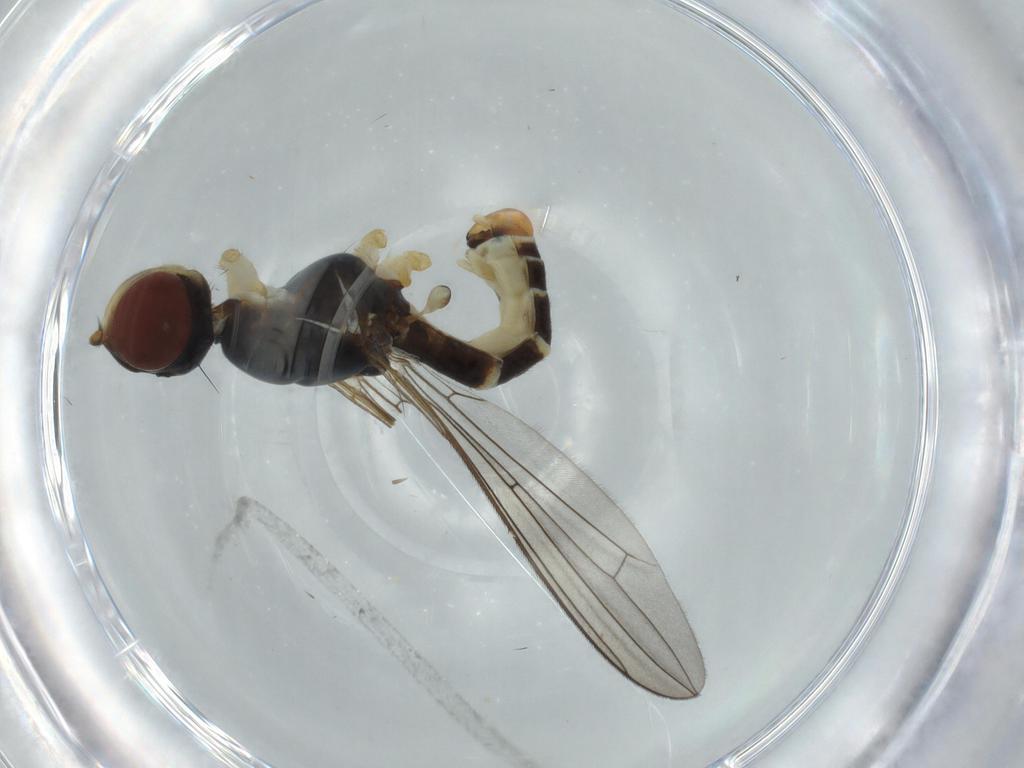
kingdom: Animalia
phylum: Arthropoda
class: Insecta
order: Diptera
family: Micropezidae
